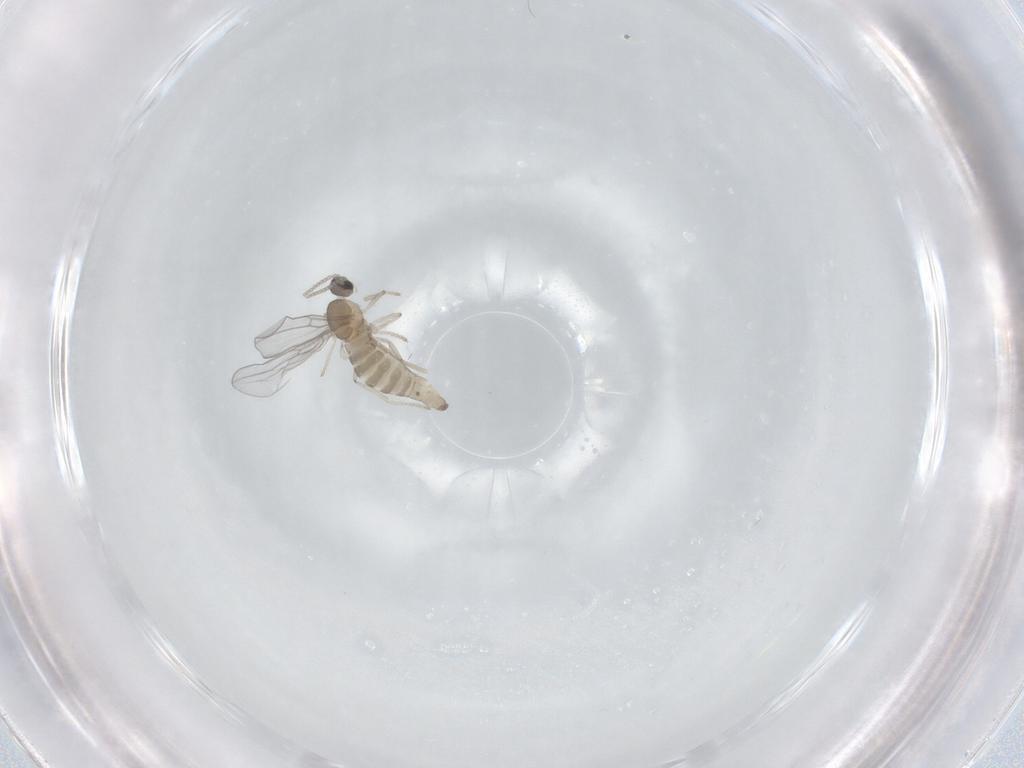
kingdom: Animalia
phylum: Arthropoda
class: Insecta
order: Diptera
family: Cecidomyiidae
